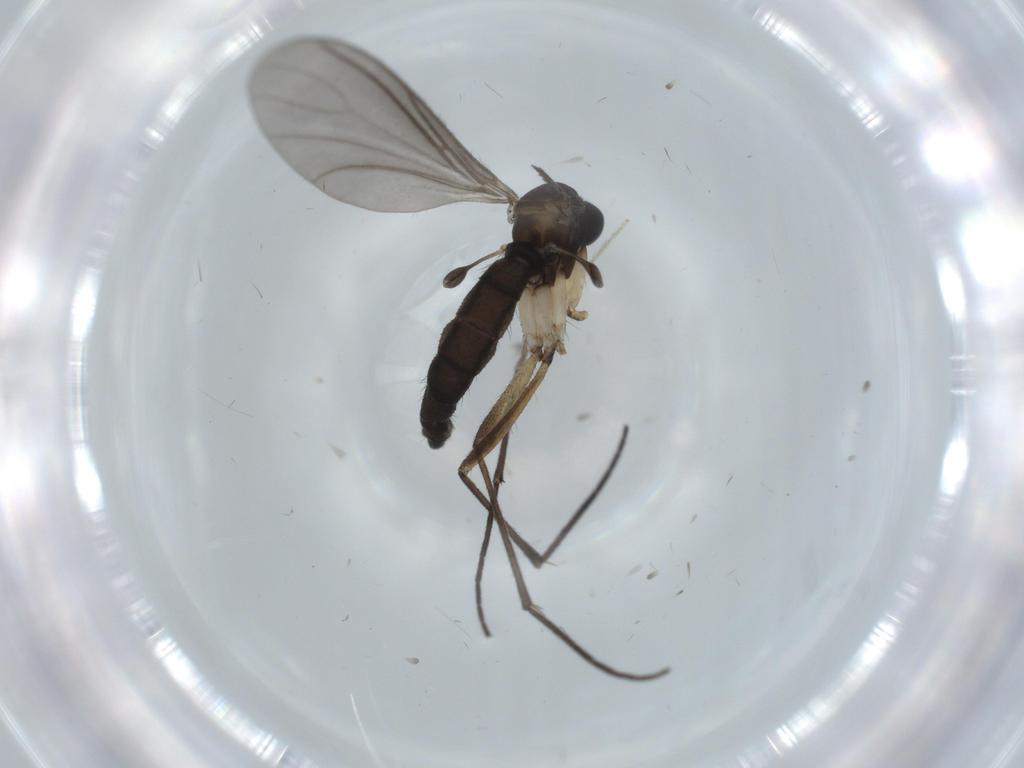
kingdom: Animalia
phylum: Arthropoda
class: Insecta
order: Diptera
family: Sciaridae
